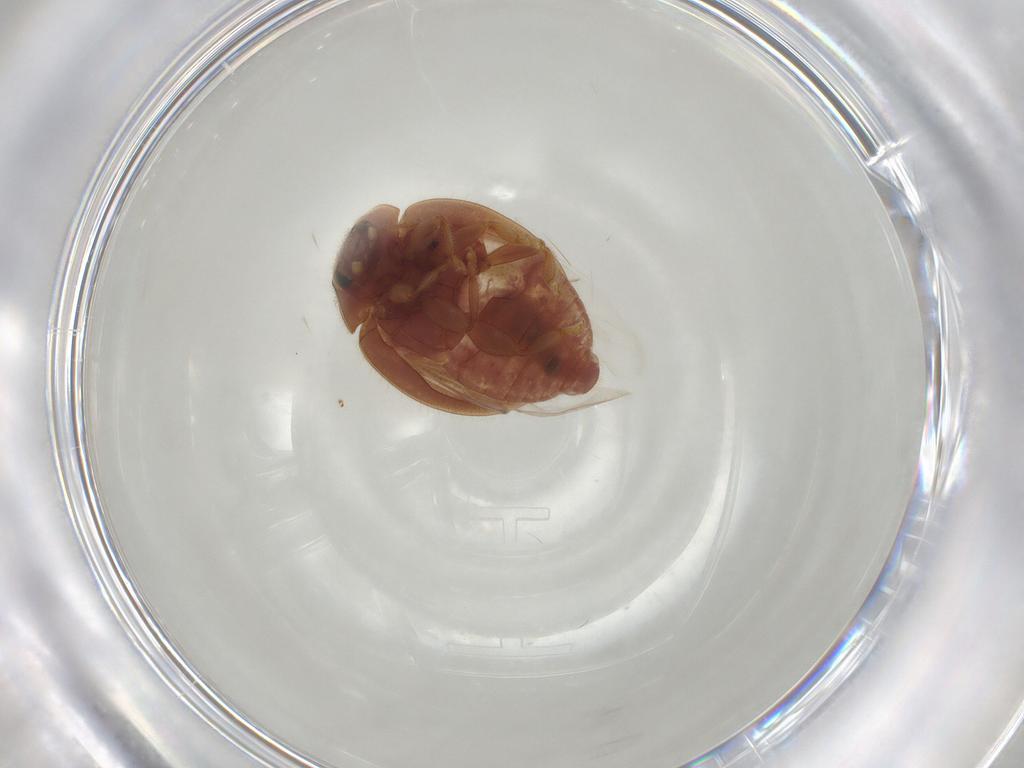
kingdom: Animalia
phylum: Arthropoda
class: Insecta
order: Coleoptera
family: Coccinellidae
